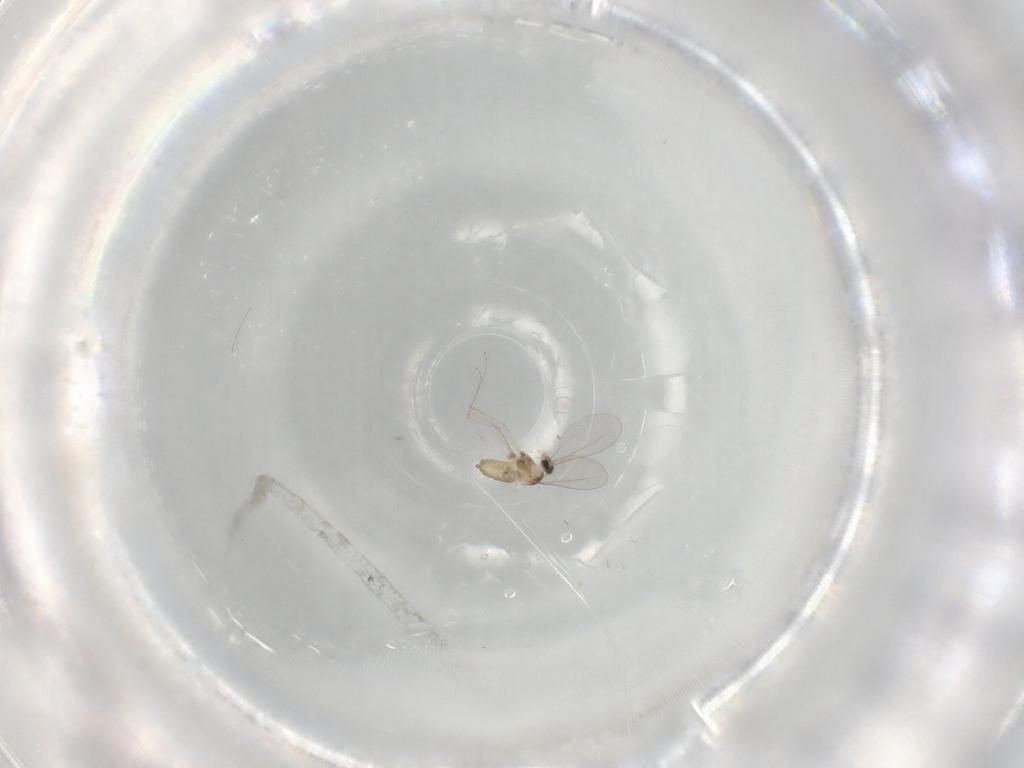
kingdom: Animalia
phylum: Arthropoda
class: Insecta
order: Diptera
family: Cecidomyiidae
